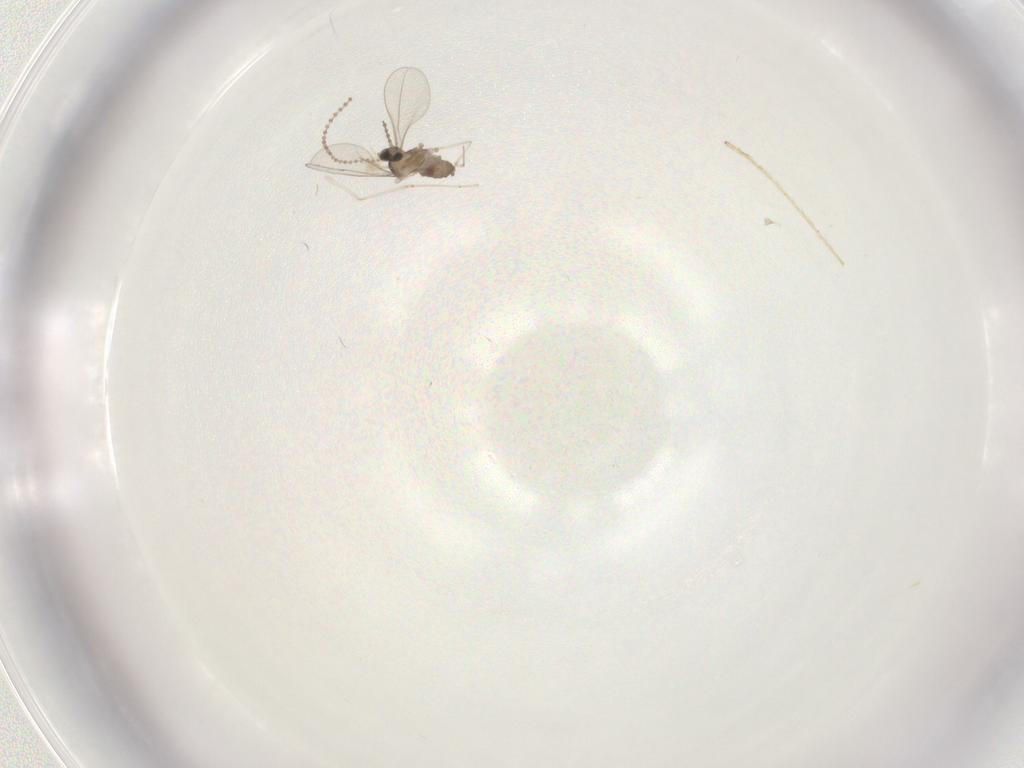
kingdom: Animalia
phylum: Arthropoda
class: Insecta
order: Diptera
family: Cecidomyiidae
